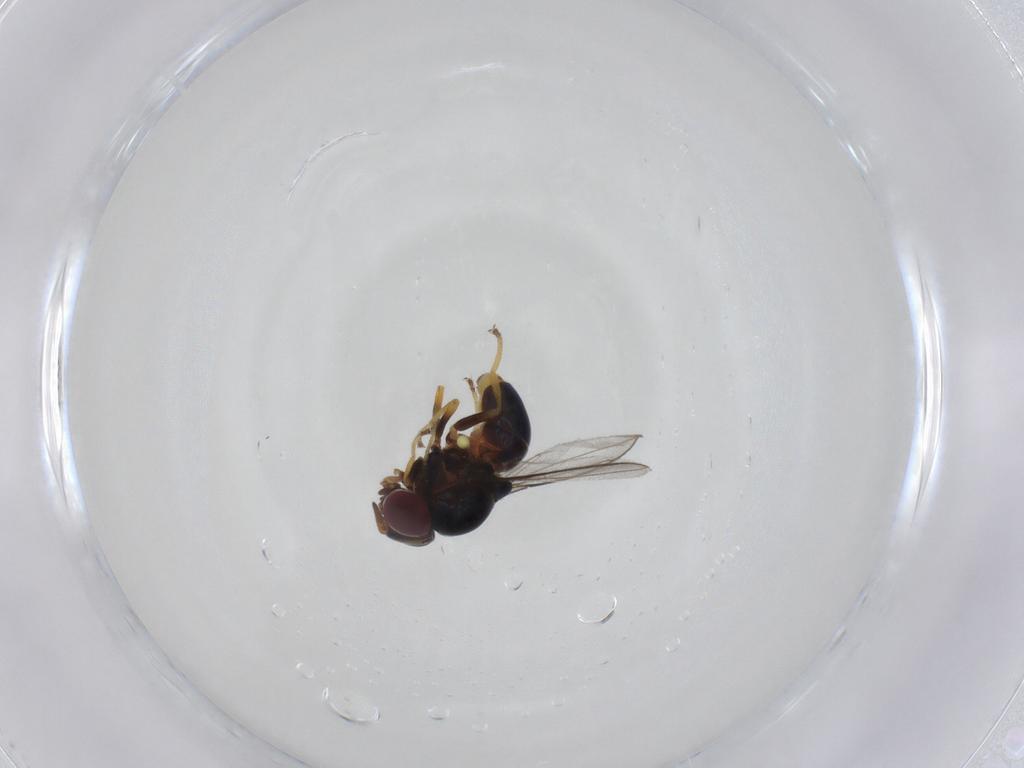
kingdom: Animalia
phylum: Arthropoda
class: Insecta
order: Diptera
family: Chloropidae
